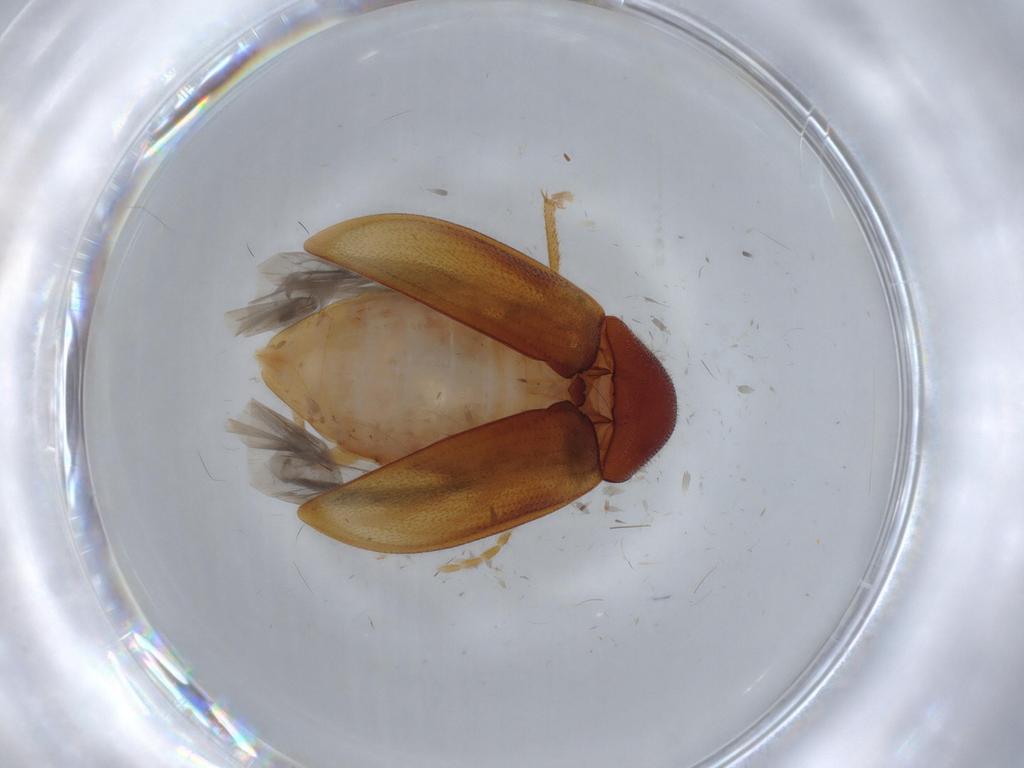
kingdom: Animalia
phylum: Arthropoda
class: Insecta
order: Coleoptera
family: Ptilodactylidae
